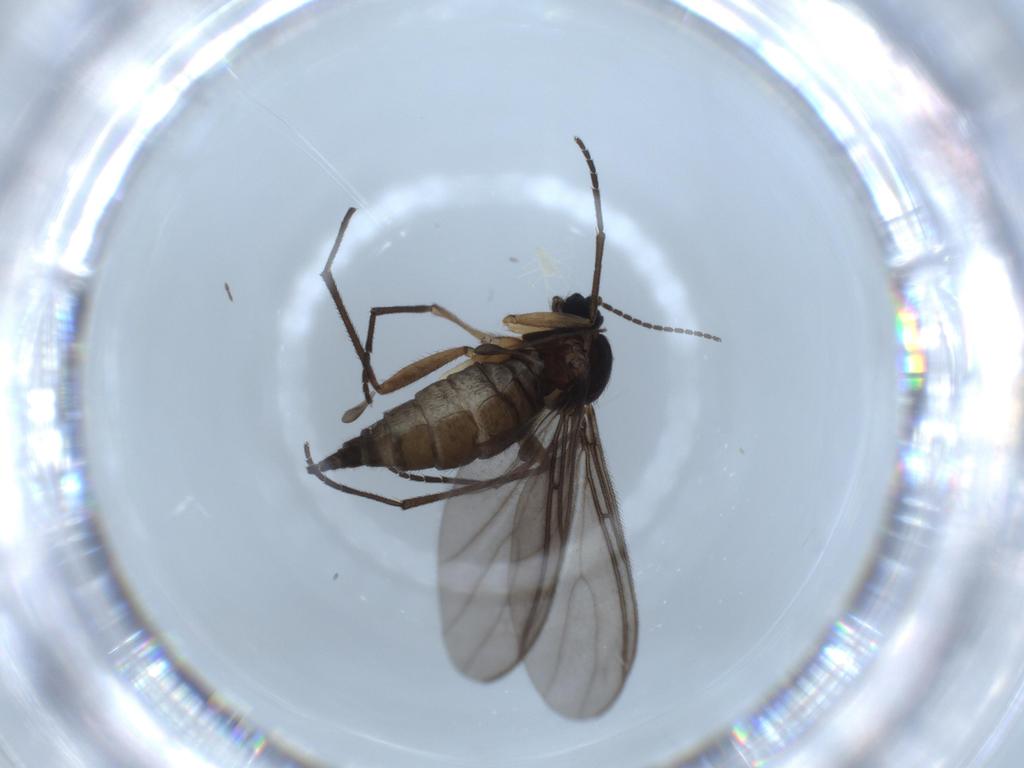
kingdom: Animalia
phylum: Arthropoda
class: Insecta
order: Diptera
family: Sciaridae
